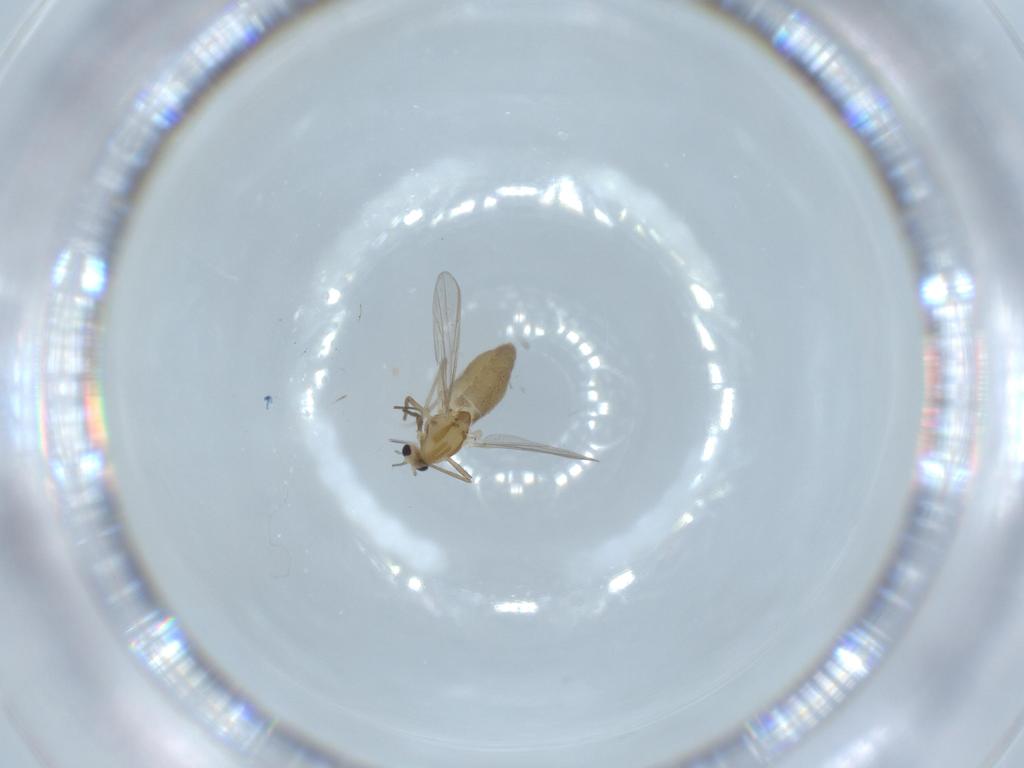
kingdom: Animalia
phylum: Arthropoda
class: Insecta
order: Diptera
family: Chironomidae
